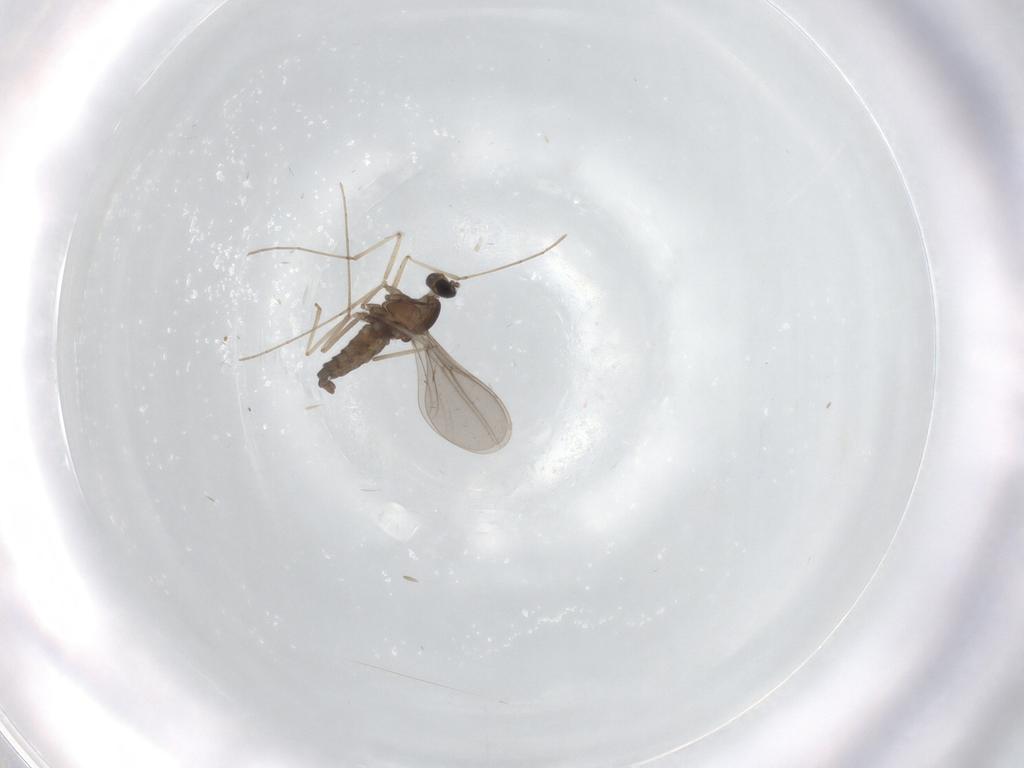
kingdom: Animalia
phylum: Arthropoda
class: Insecta
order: Diptera
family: Cecidomyiidae
